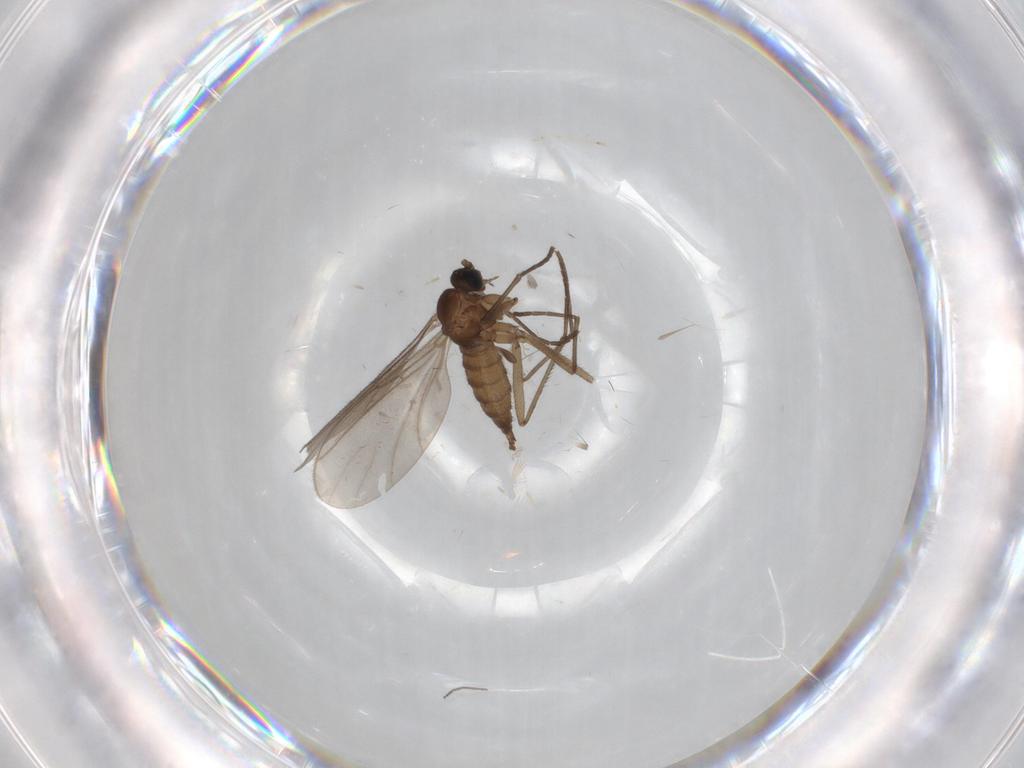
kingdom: Animalia
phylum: Arthropoda
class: Insecta
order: Diptera
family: Sciaridae
